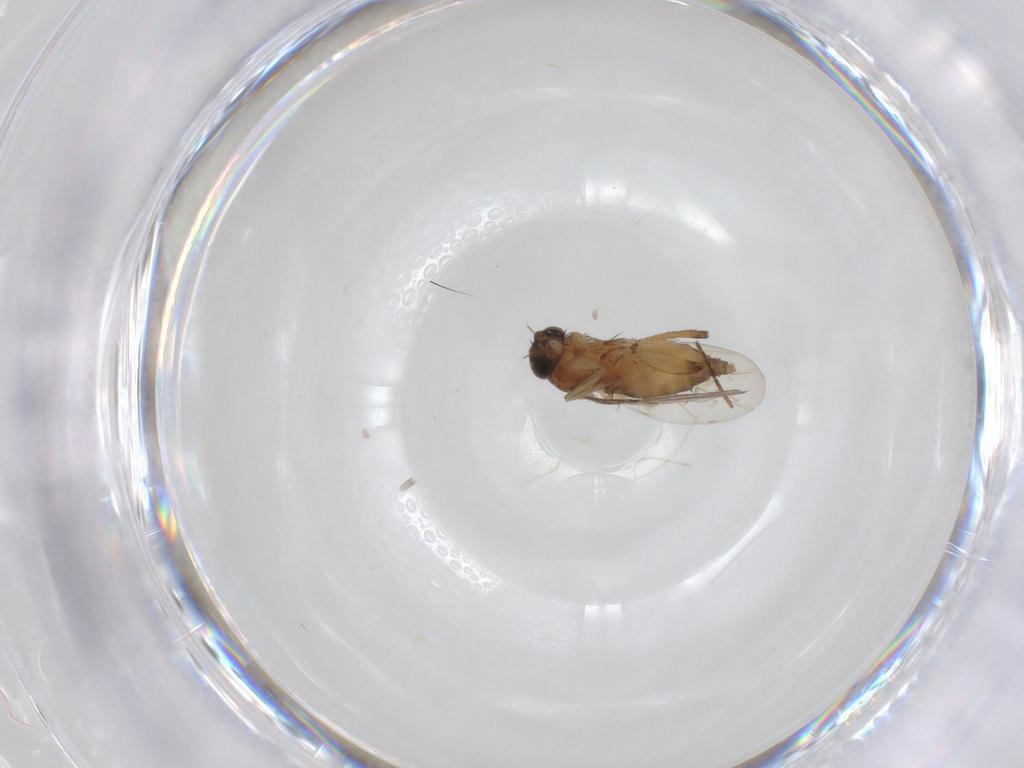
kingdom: Animalia
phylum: Arthropoda
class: Insecta
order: Diptera
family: Phoridae
